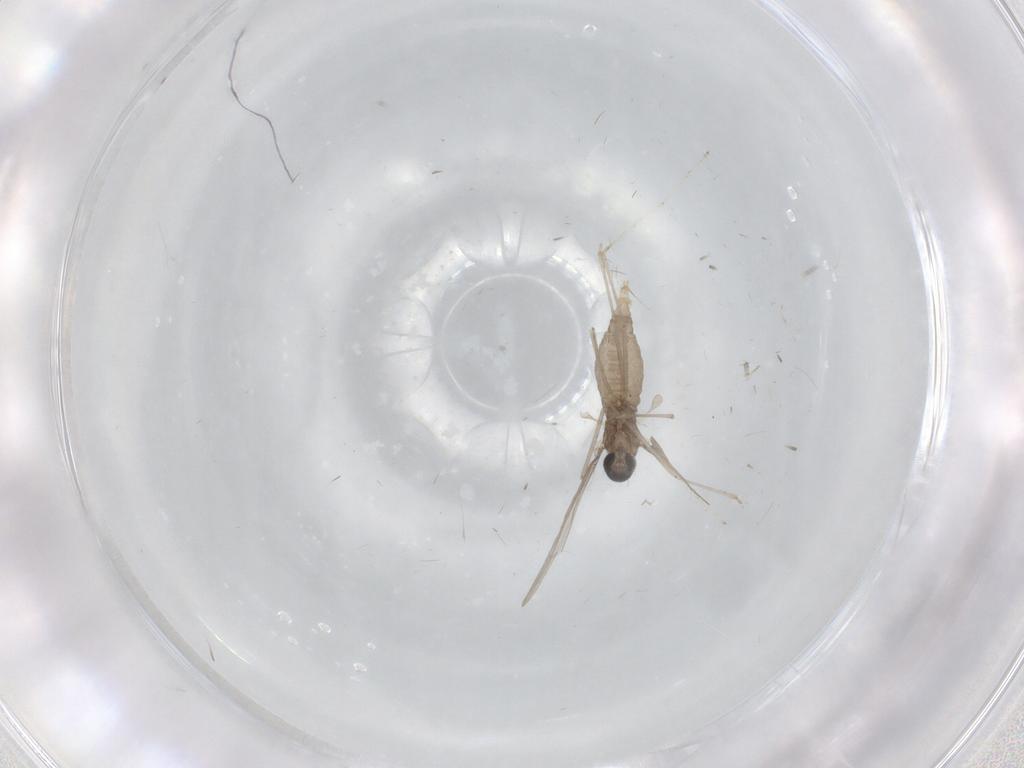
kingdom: Animalia
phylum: Arthropoda
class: Insecta
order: Diptera
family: Cecidomyiidae
